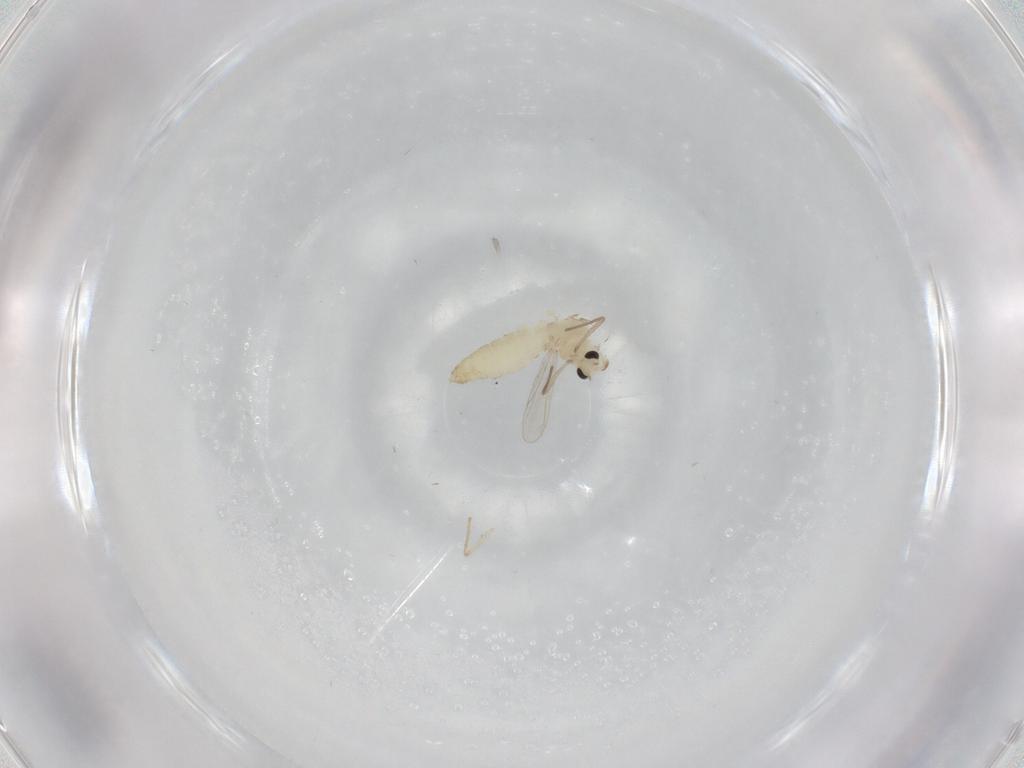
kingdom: Animalia
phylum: Arthropoda
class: Insecta
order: Diptera
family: Chironomidae
